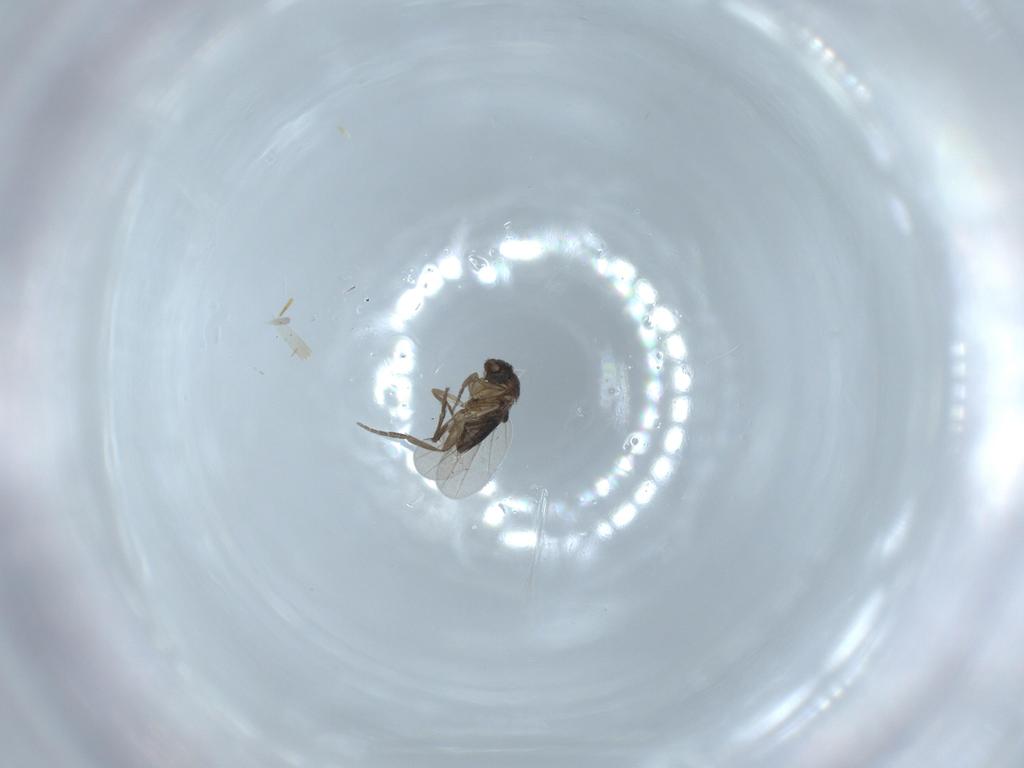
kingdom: Animalia
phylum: Arthropoda
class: Insecta
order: Diptera
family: Phoridae
